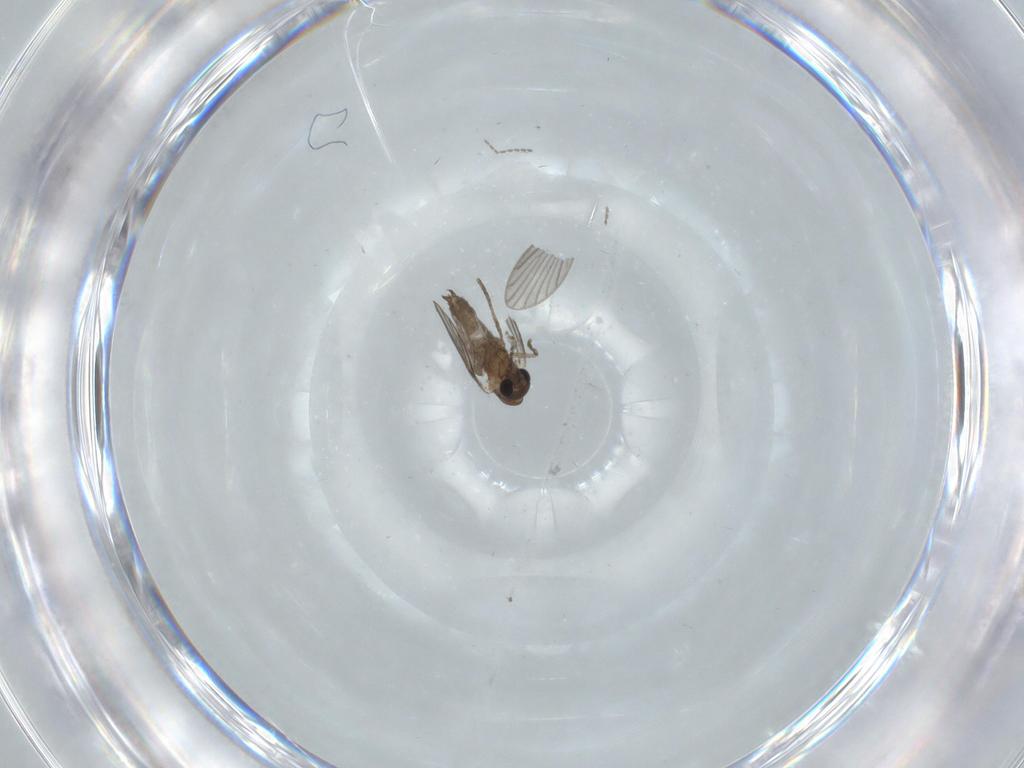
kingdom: Animalia
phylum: Arthropoda
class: Insecta
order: Diptera
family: Psychodidae
